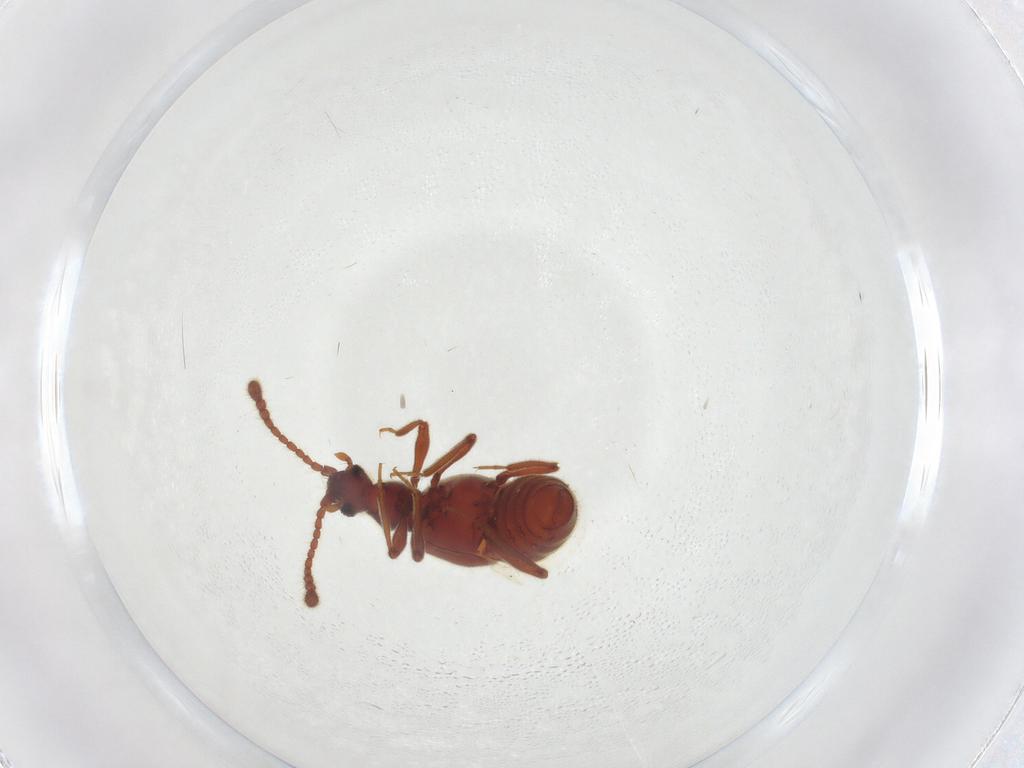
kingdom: Animalia
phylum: Arthropoda
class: Insecta
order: Coleoptera
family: Staphylinidae
